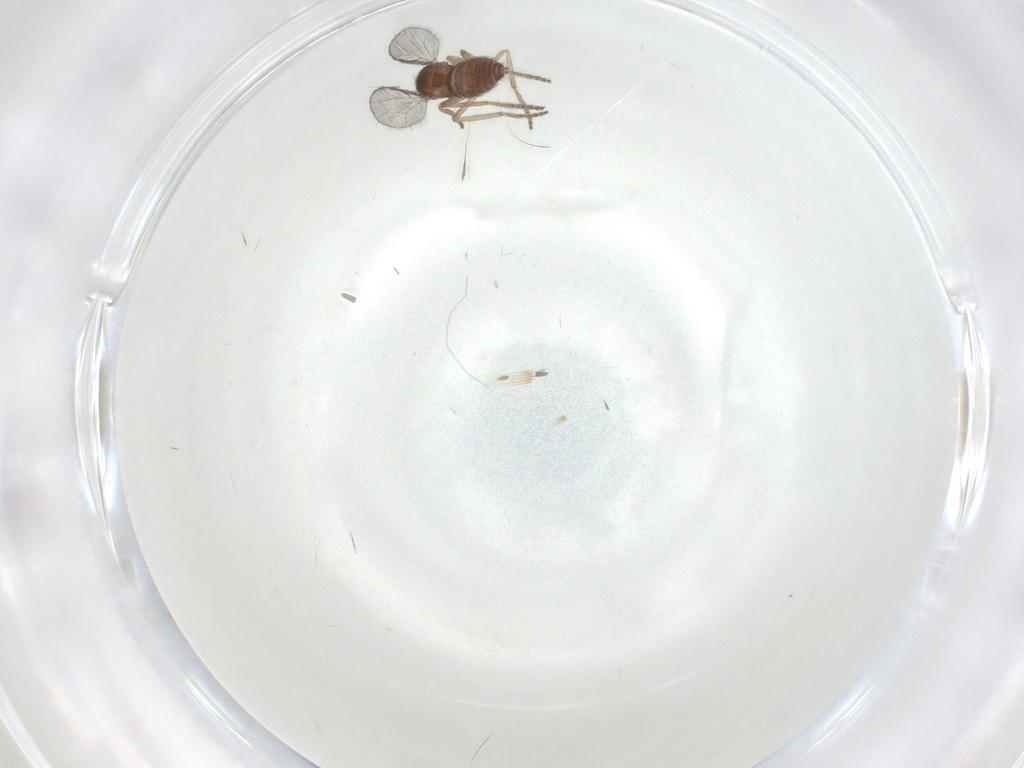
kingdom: Animalia
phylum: Arthropoda
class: Insecta
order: Diptera
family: Ceratopogonidae
